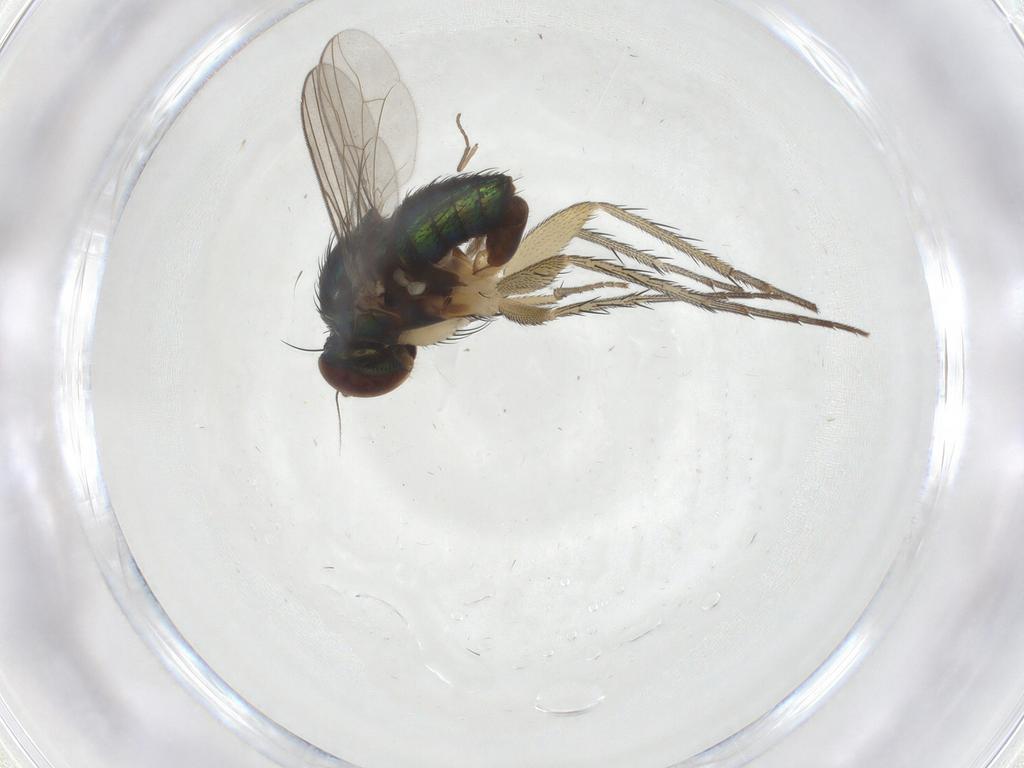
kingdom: Animalia
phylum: Arthropoda
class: Insecta
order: Diptera
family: Dolichopodidae
